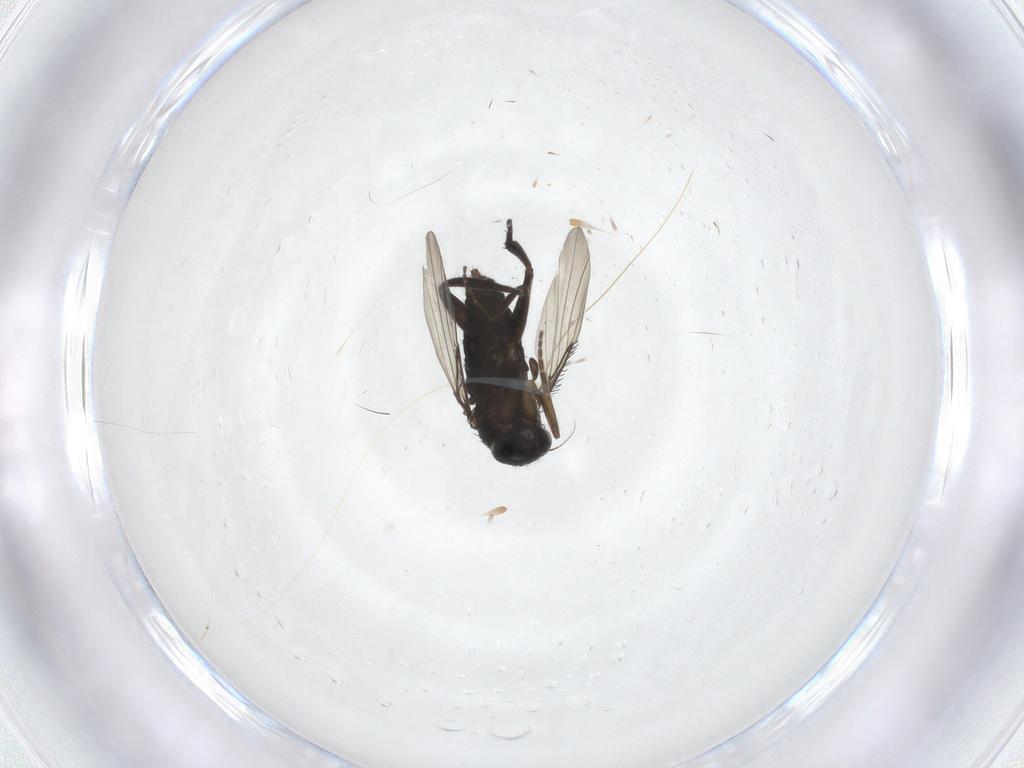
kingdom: Animalia
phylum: Arthropoda
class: Insecta
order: Diptera
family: Phoridae
